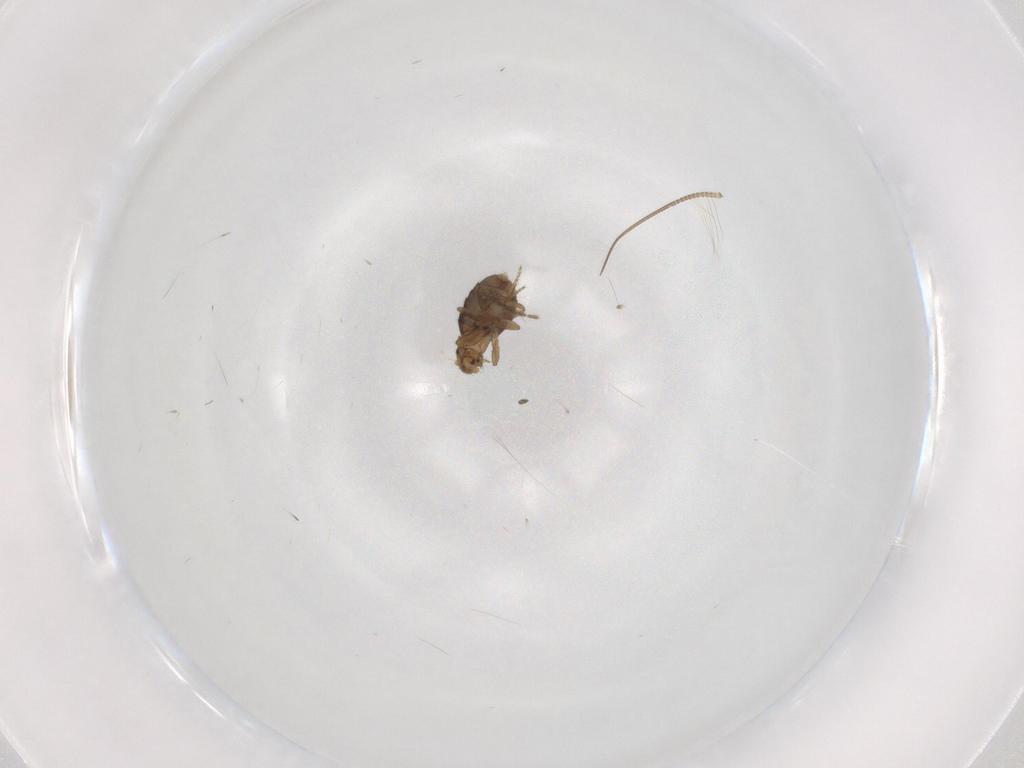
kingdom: Animalia
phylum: Arthropoda
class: Insecta
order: Diptera
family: Phoridae
